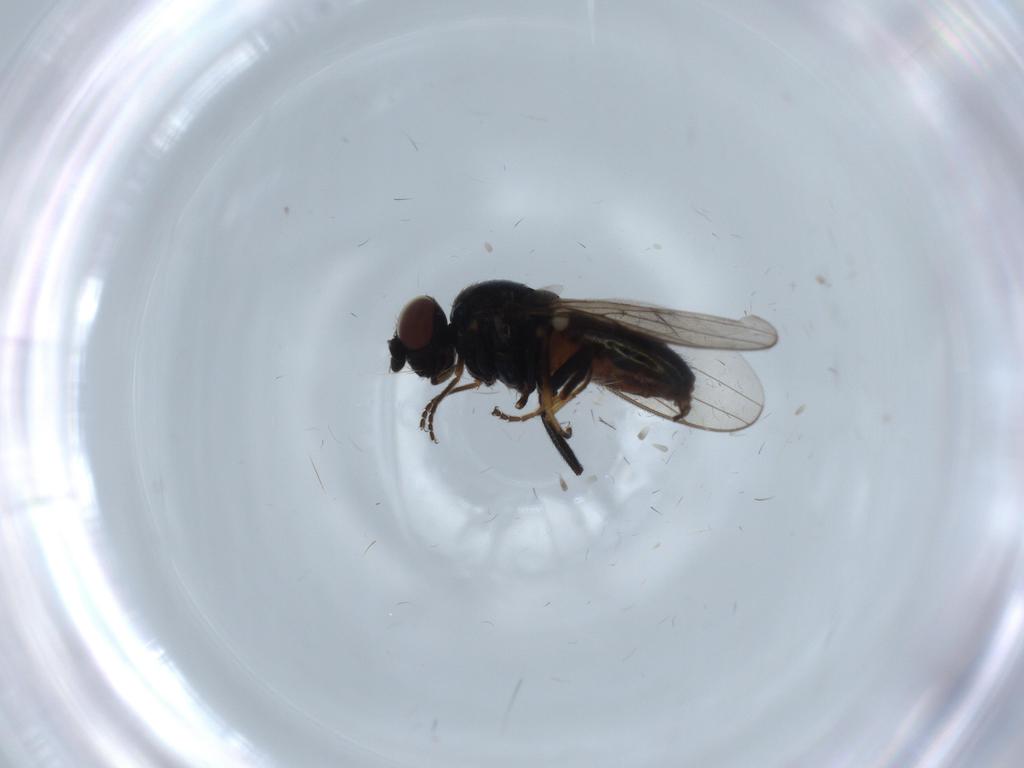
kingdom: Animalia
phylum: Arthropoda
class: Insecta
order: Diptera
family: Chloropidae
